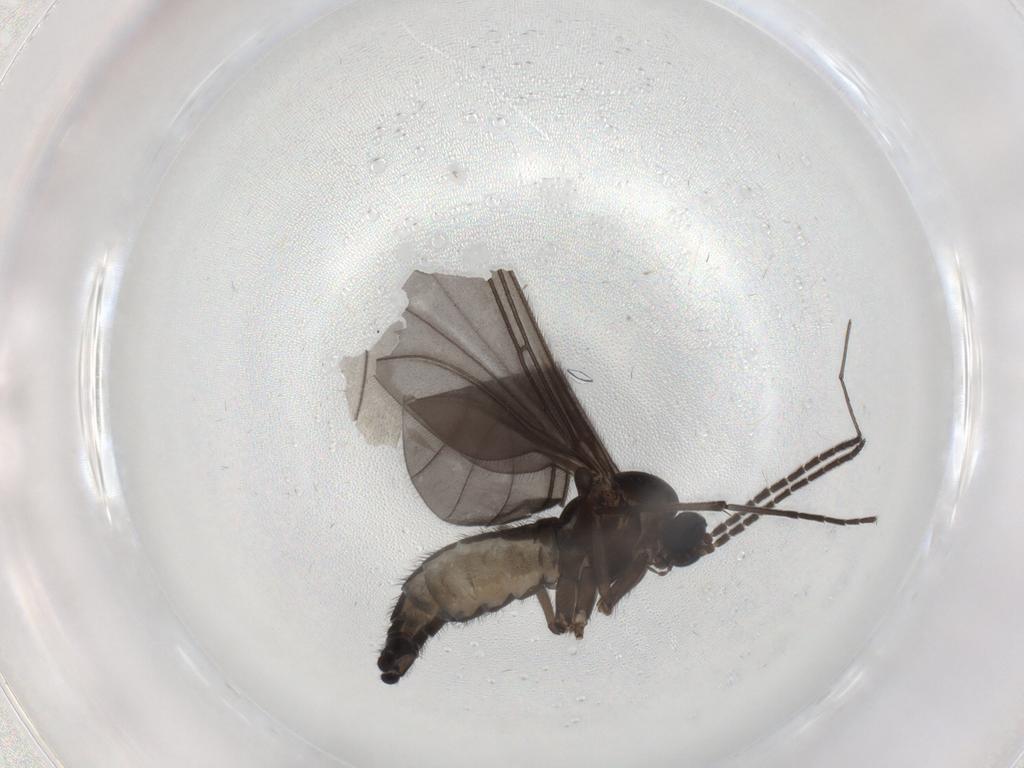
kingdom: Animalia
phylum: Arthropoda
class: Insecta
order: Diptera
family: Sciaridae
